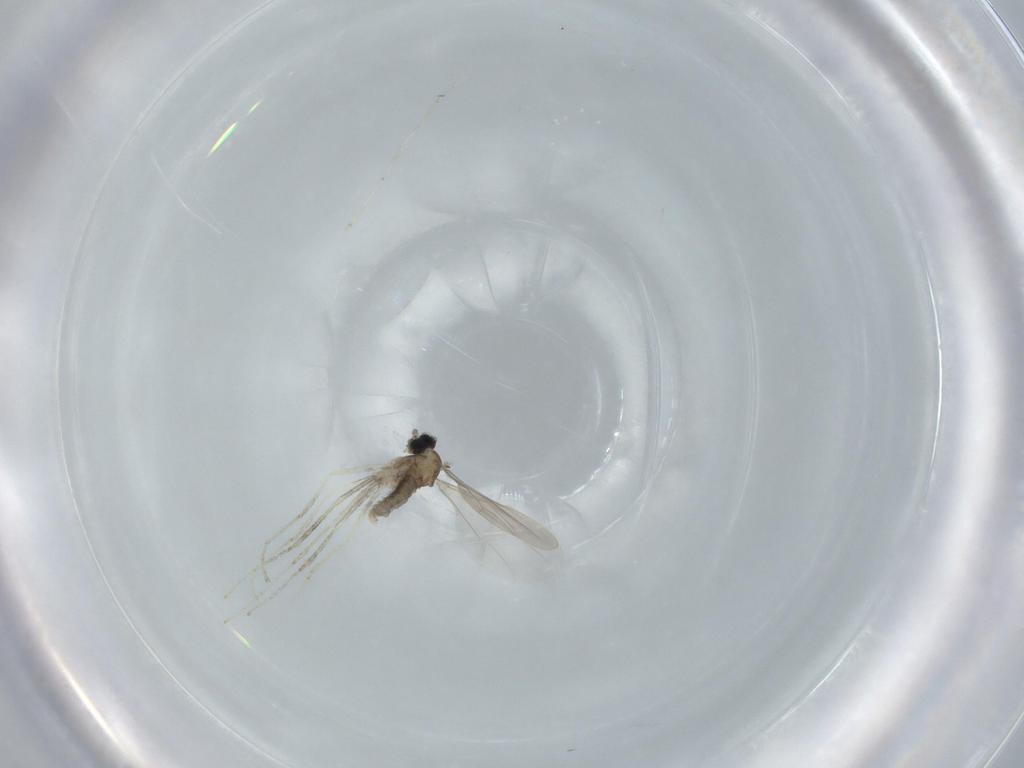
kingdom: Animalia
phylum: Arthropoda
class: Insecta
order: Diptera
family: Cecidomyiidae
